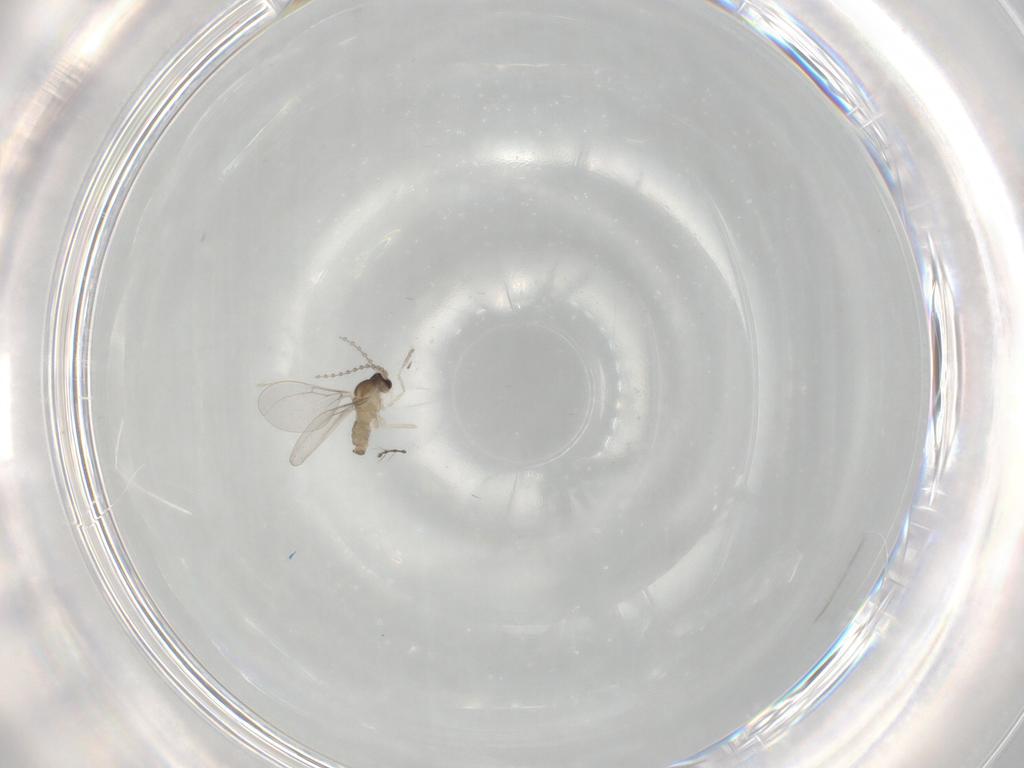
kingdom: Animalia
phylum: Arthropoda
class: Insecta
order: Diptera
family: Cecidomyiidae
